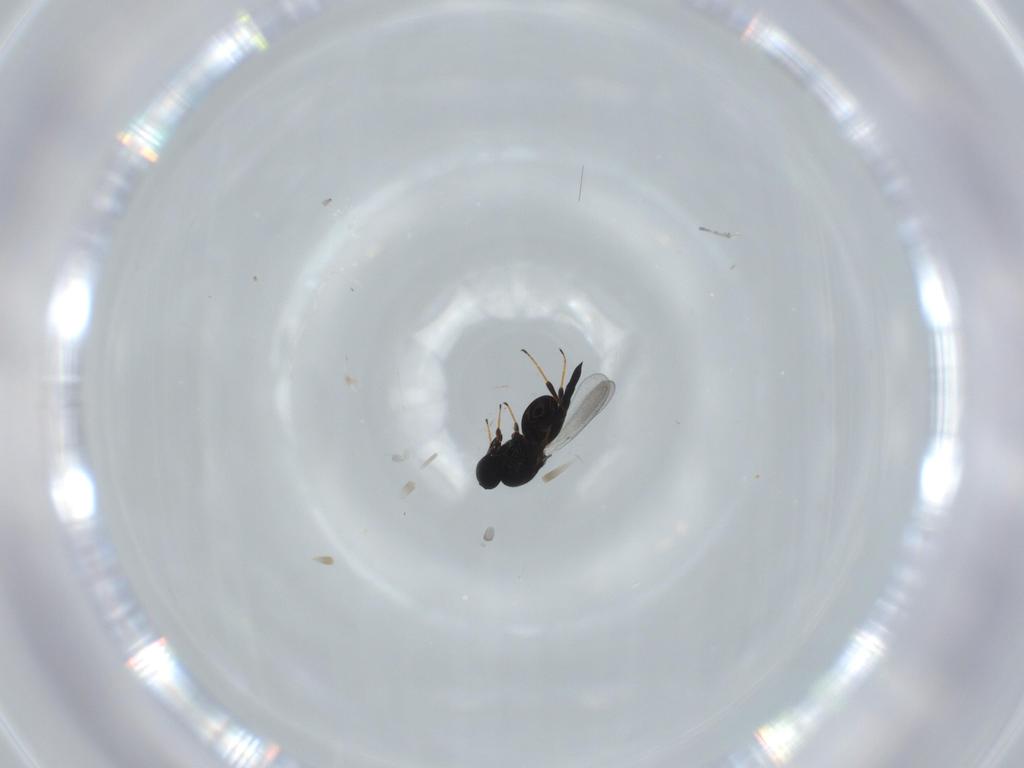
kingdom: Animalia
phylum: Arthropoda
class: Insecta
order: Hymenoptera
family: Platygastridae
